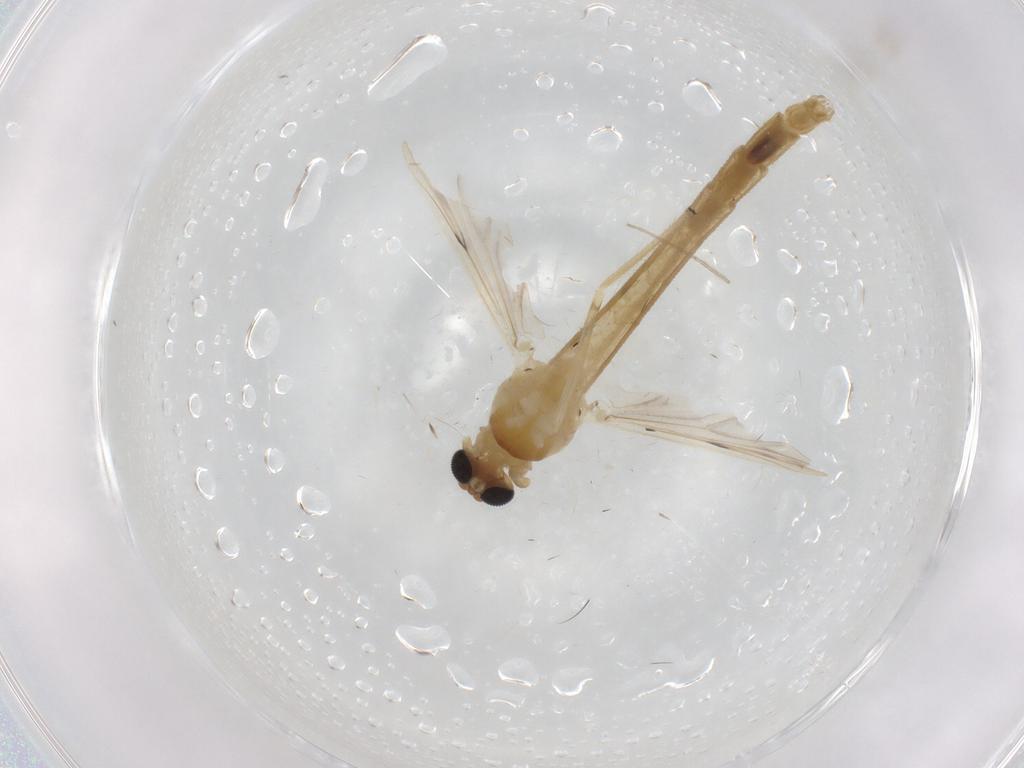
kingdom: Animalia
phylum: Arthropoda
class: Insecta
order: Diptera
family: Chironomidae
